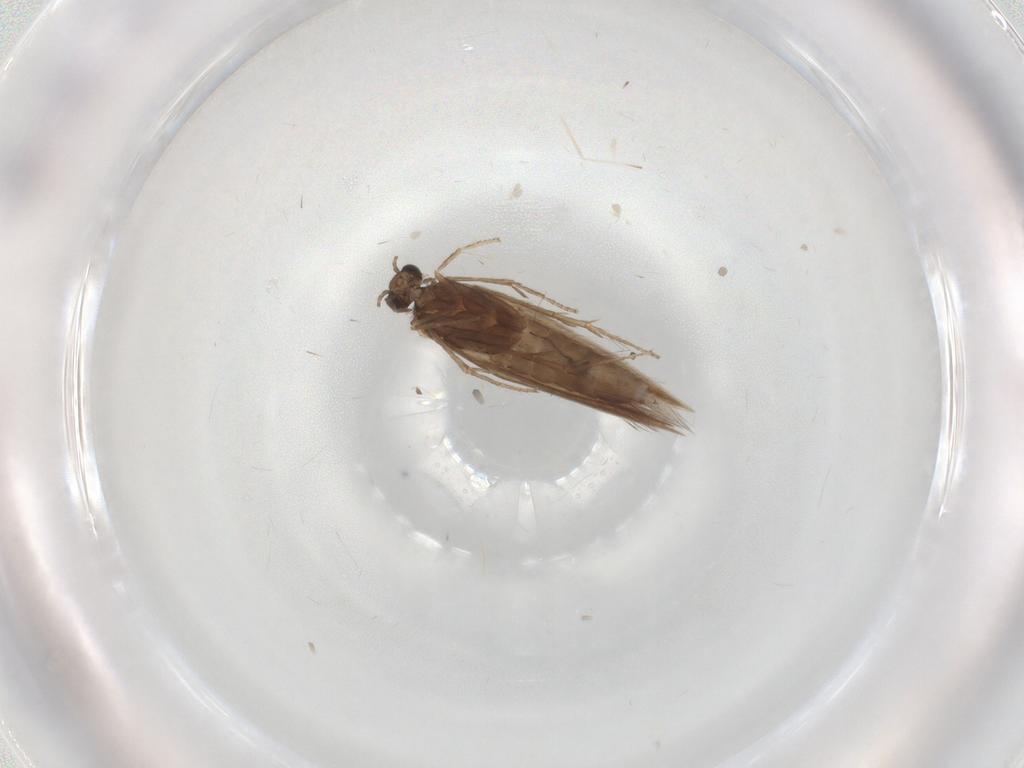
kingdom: Animalia
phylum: Arthropoda
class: Insecta
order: Trichoptera
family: Hydroptilidae
